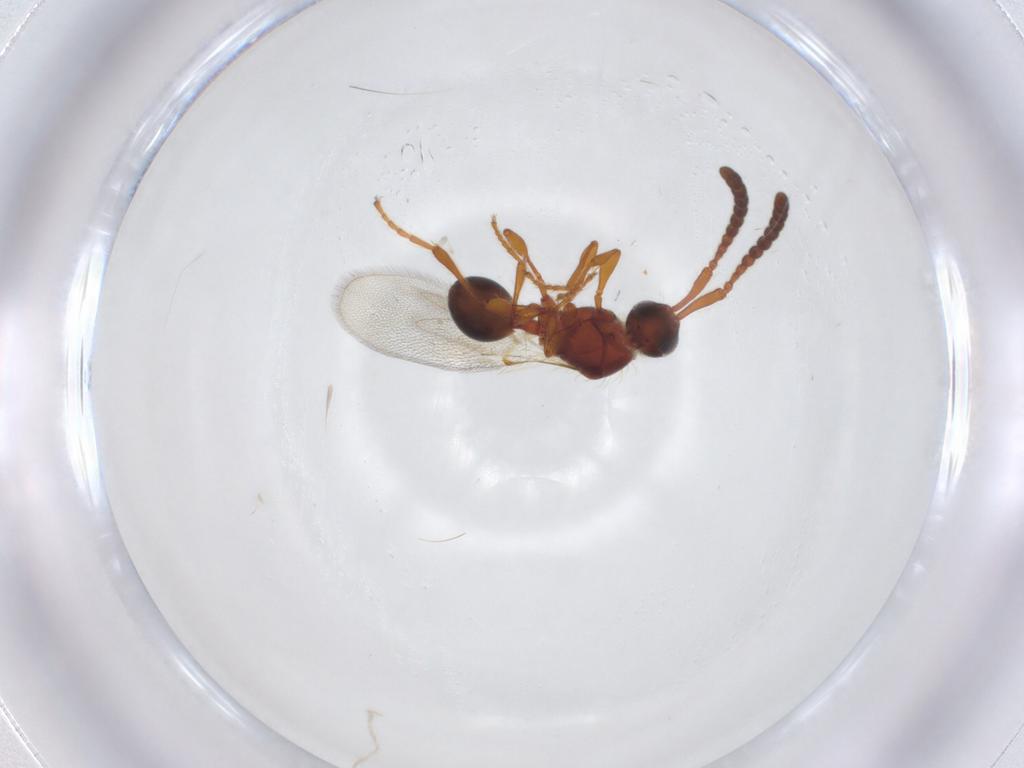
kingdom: Animalia
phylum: Arthropoda
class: Insecta
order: Hymenoptera
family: Diapriidae
